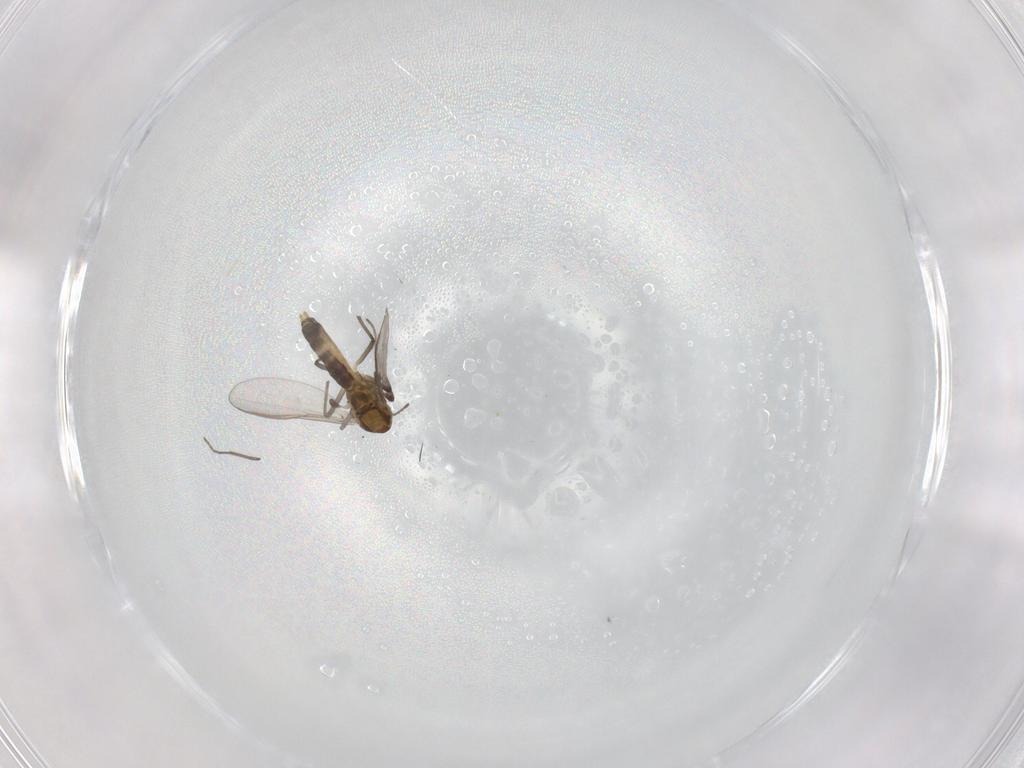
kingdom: Animalia
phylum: Arthropoda
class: Insecta
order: Diptera
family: Chironomidae
